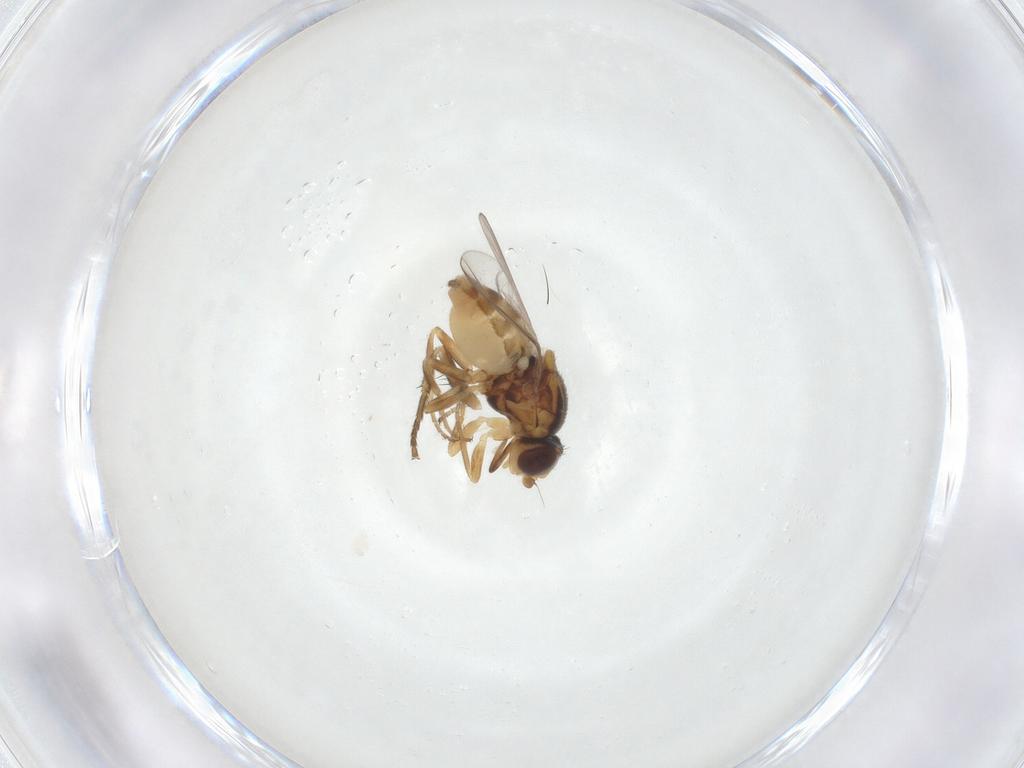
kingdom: Animalia
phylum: Arthropoda
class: Insecta
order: Diptera
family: Chloropidae
